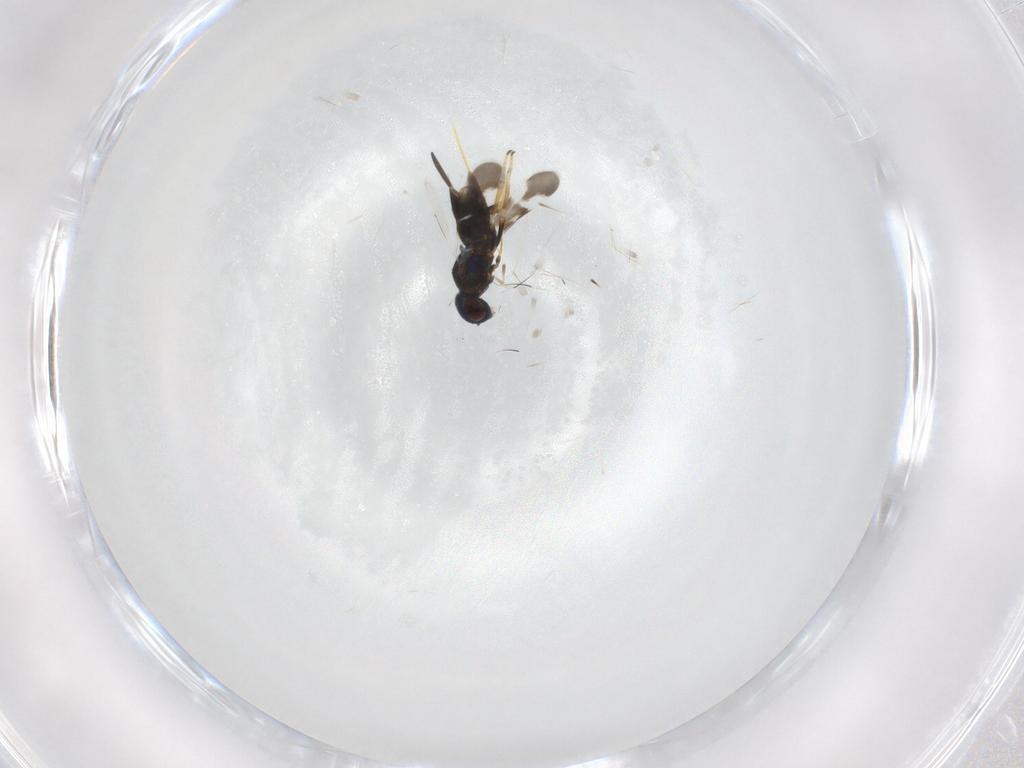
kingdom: Animalia
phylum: Arthropoda
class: Insecta
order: Hymenoptera
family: Ichneumonidae
